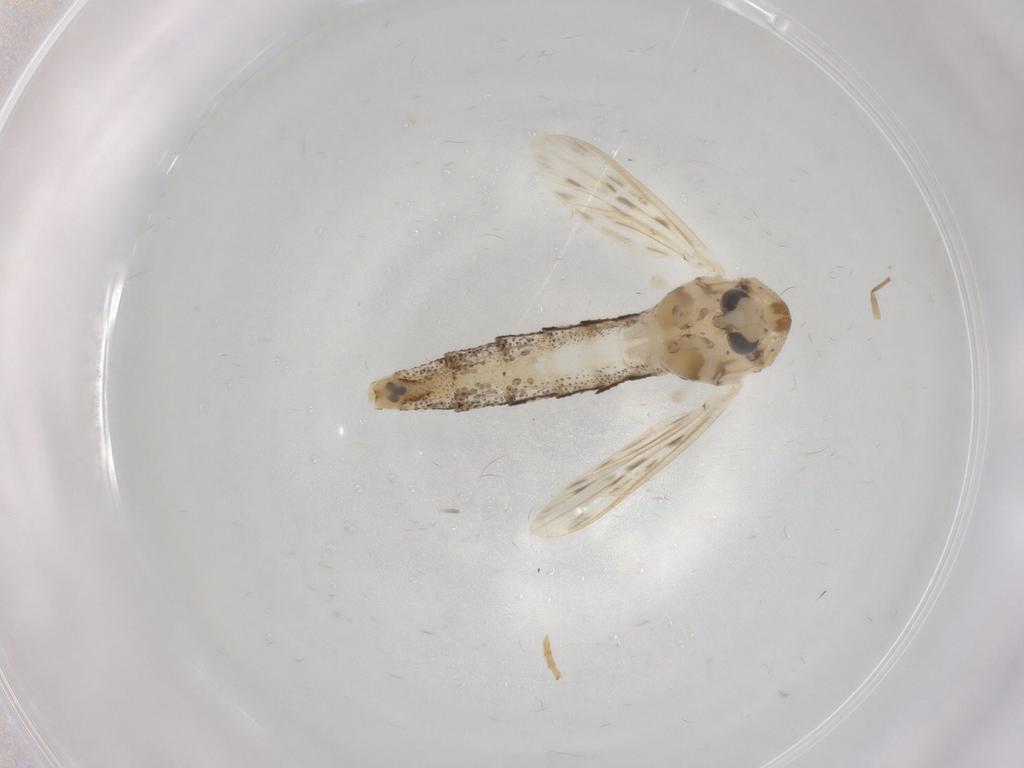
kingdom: Animalia
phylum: Arthropoda
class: Insecta
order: Diptera
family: Chaoboridae
